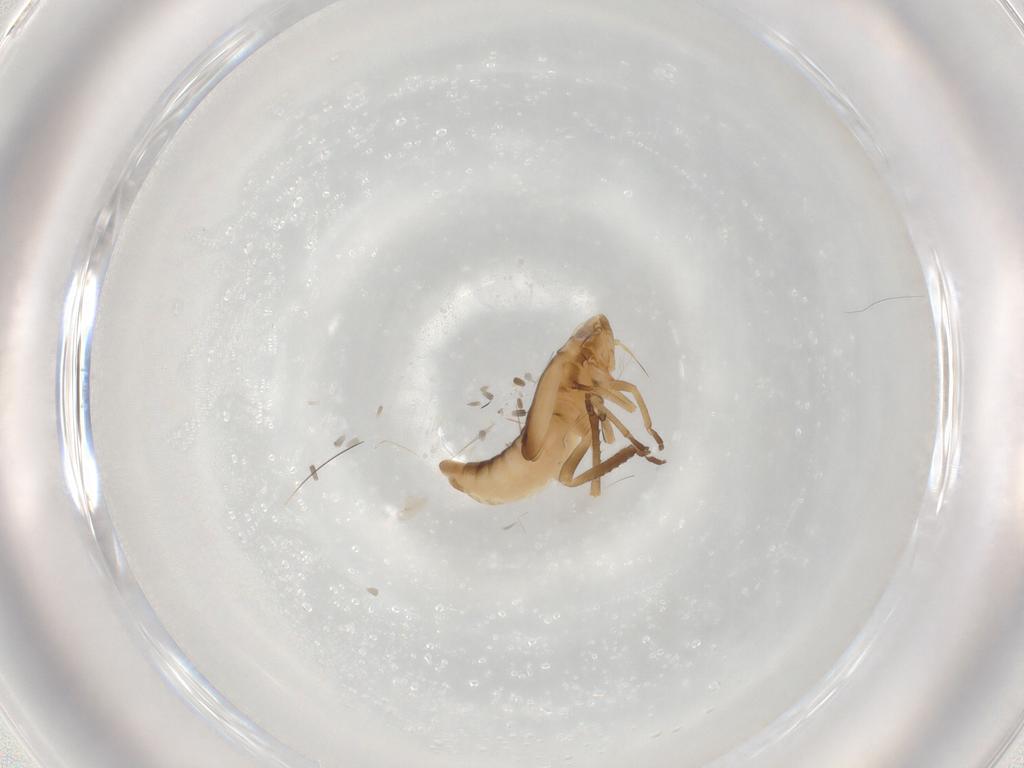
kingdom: Animalia
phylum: Arthropoda
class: Insecta
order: Hemiptera
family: Cicadellidae
